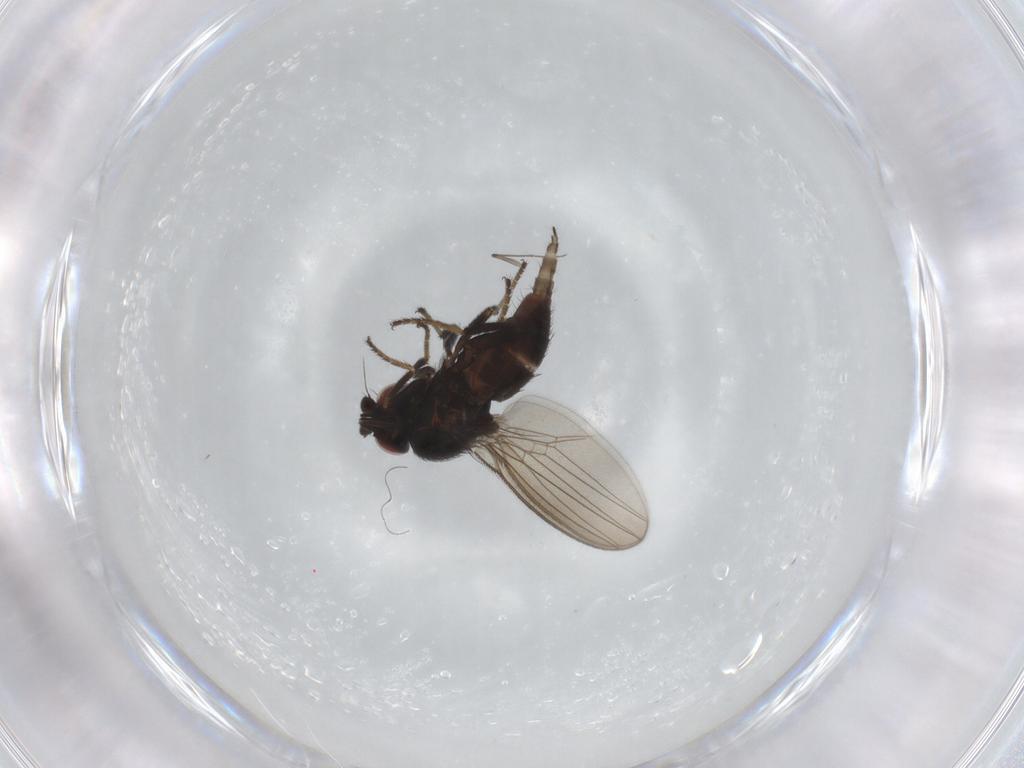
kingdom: Animalia
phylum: Arthropoda
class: Insecta
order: Diptera
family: Milichiidae
